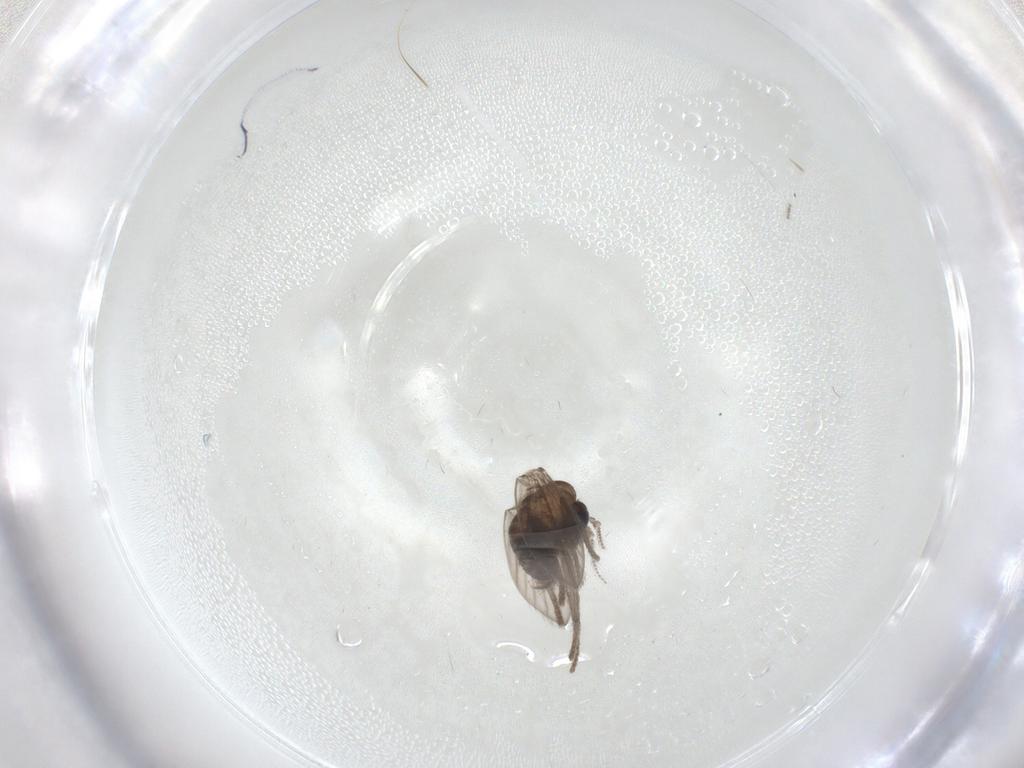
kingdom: Animalia
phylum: Arthropoda
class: Insecta
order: Diptera
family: Psychodidae
